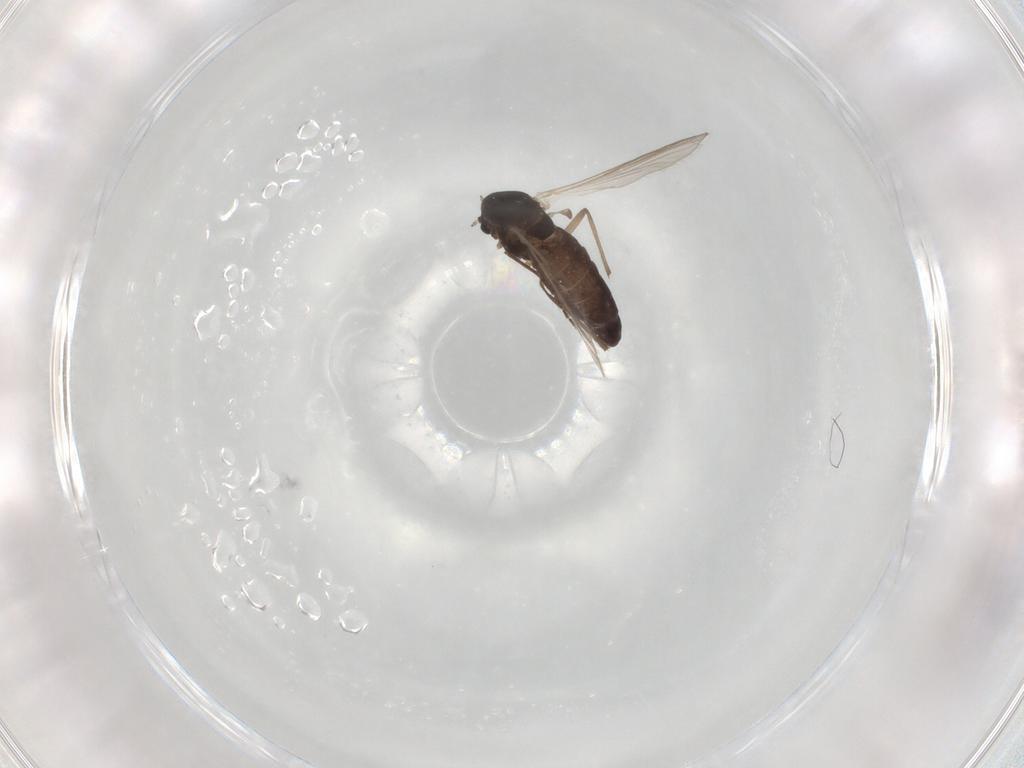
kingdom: Animalia
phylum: Arthropoda
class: Insecta
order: Diptera
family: Chironomidae
